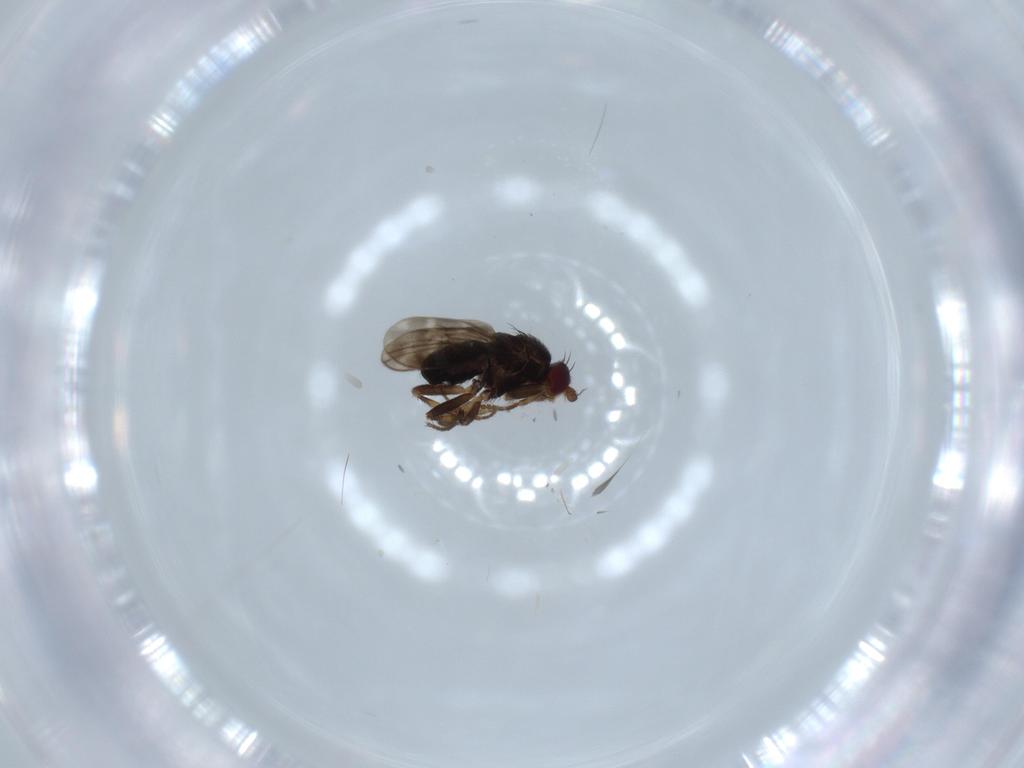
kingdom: Animalia
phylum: Arthropoda
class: Insecta
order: Diptera
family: Sphaeroceridae
